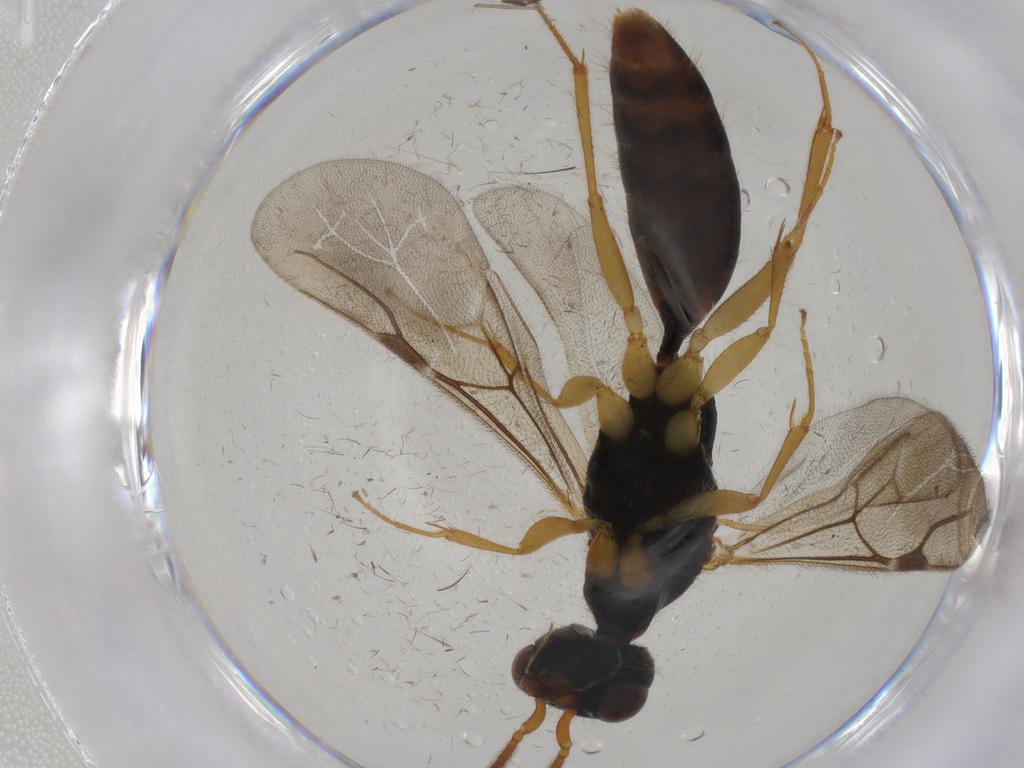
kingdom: Animalia
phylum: Arthropoda
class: Insecta
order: Hymenoptera
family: Bethylidae
